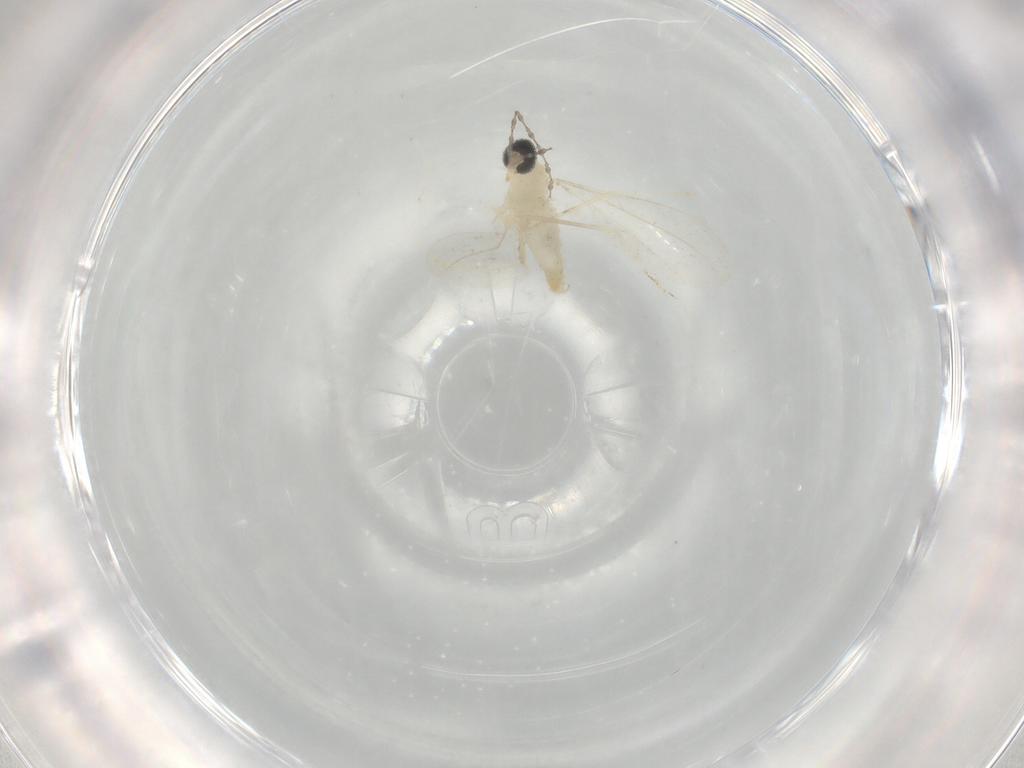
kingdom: Animalia
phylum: Arthropoda
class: Insecta
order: Diptera
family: Cecidomyiidae
